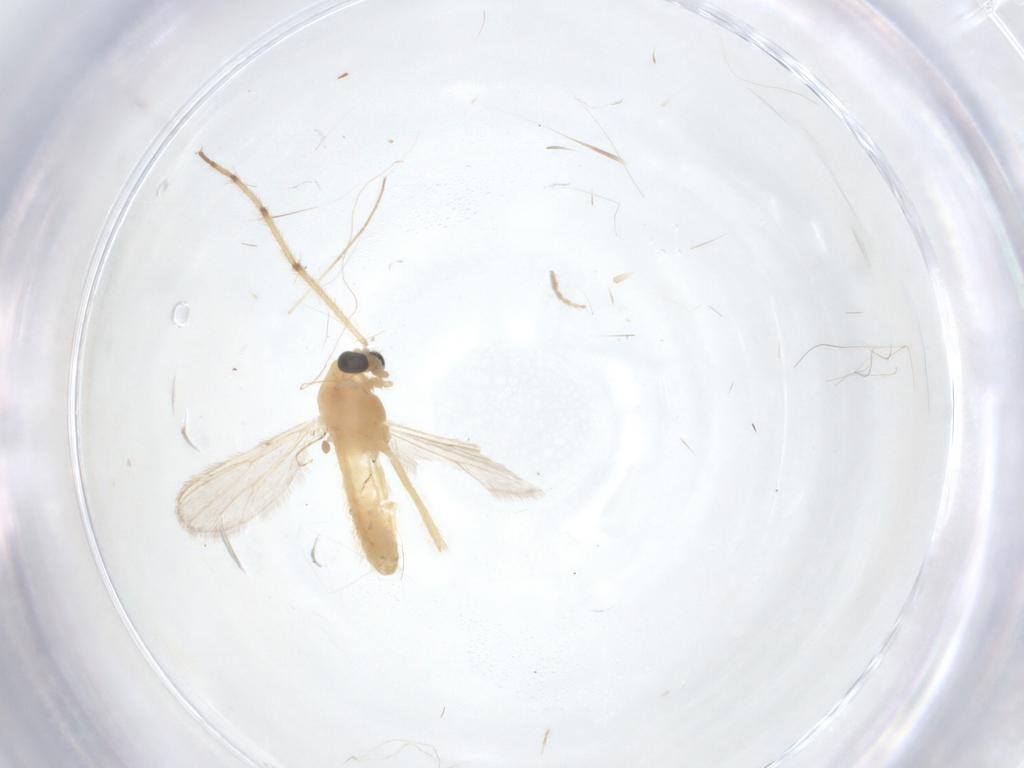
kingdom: Animalia
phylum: Arthropoda
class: Insecta
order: Diptera
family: Chironomidae
